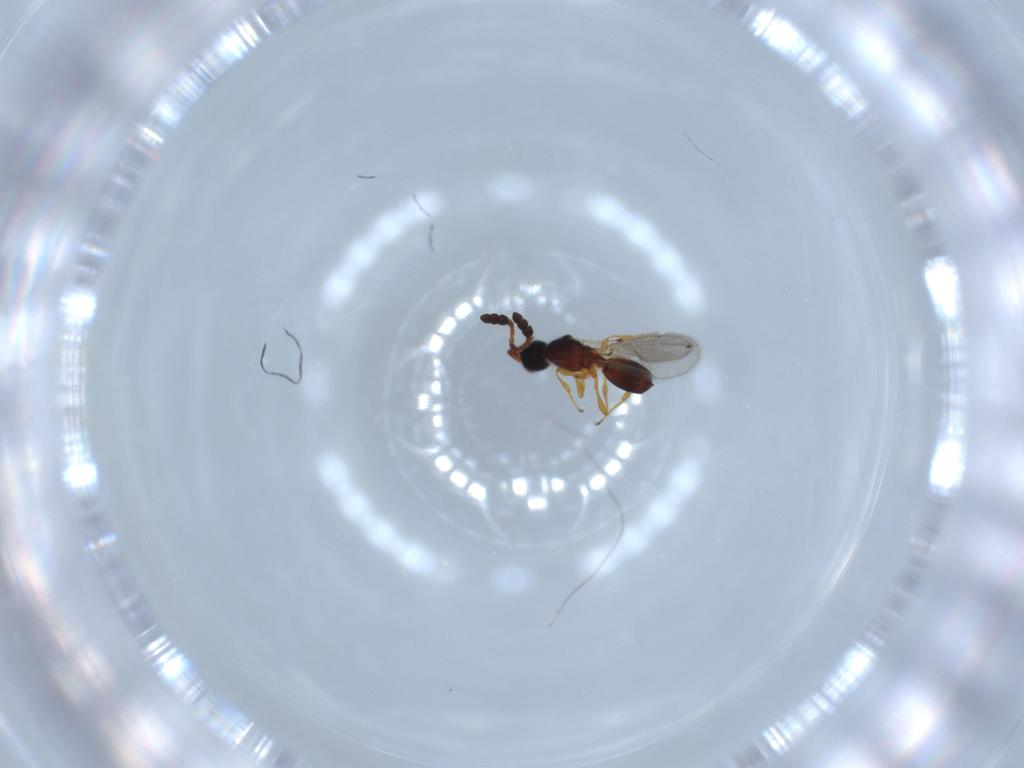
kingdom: Animalia
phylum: Arthropoda
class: Insecta
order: Hymenoptera
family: Diapriidae
